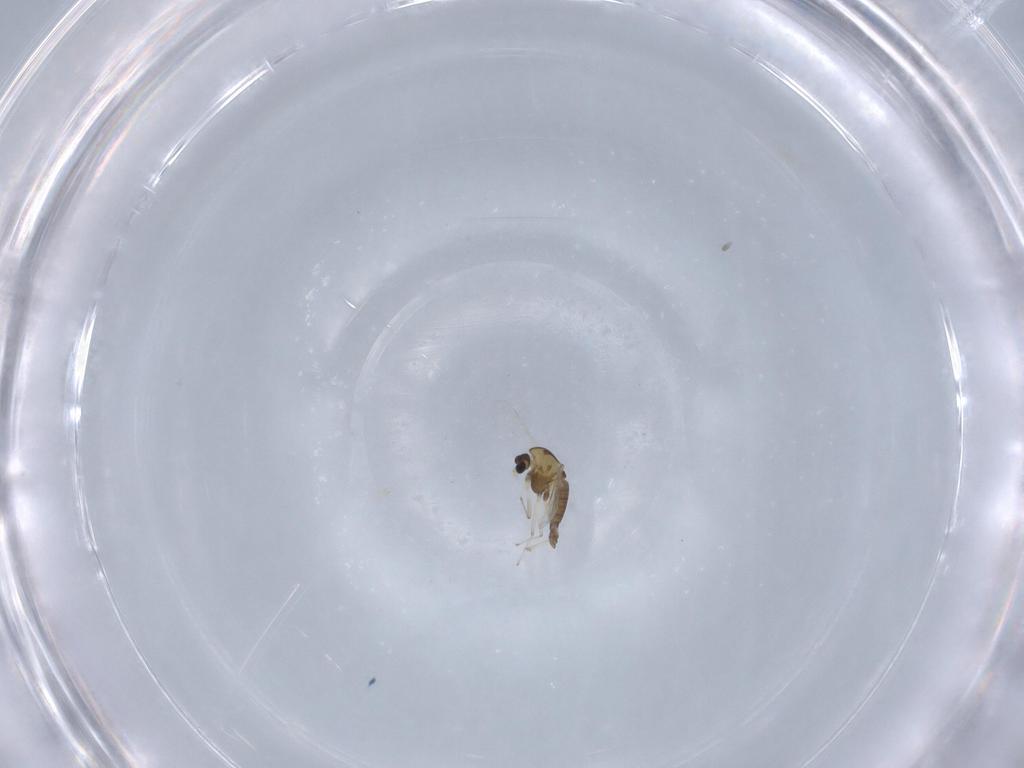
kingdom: Animalia
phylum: Arthropoda
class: Insecta
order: Diptera
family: Chironomidae
